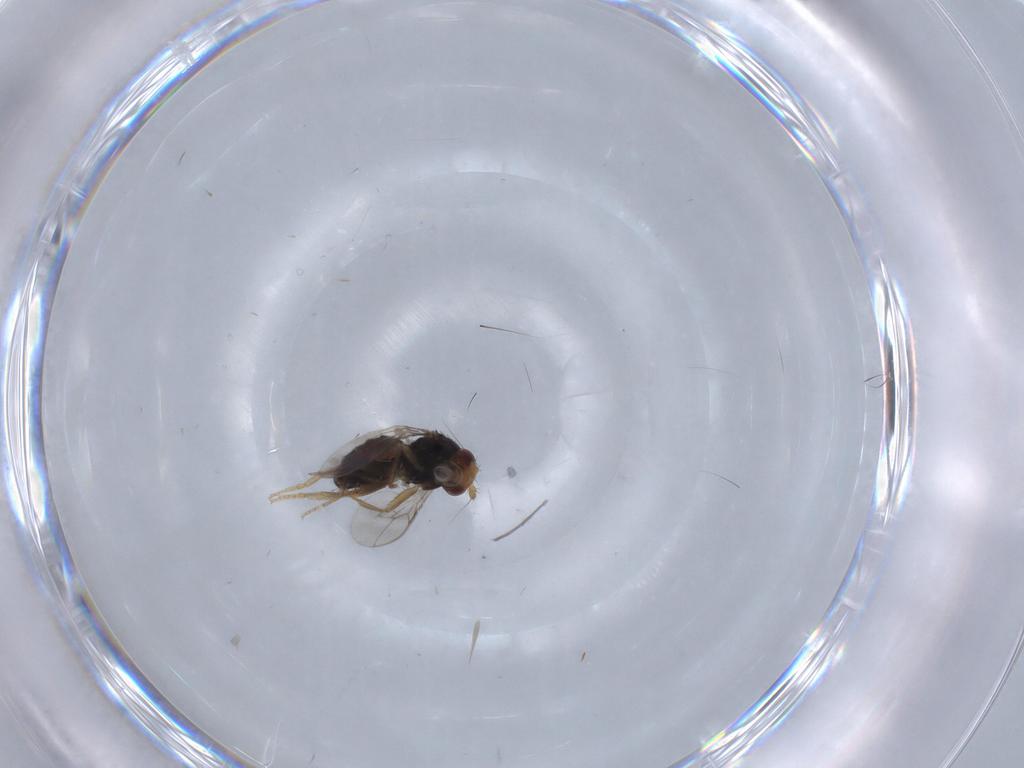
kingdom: Animalia
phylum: Arthropoda
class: Insecta
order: Diptera
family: Sphaeroceridae
